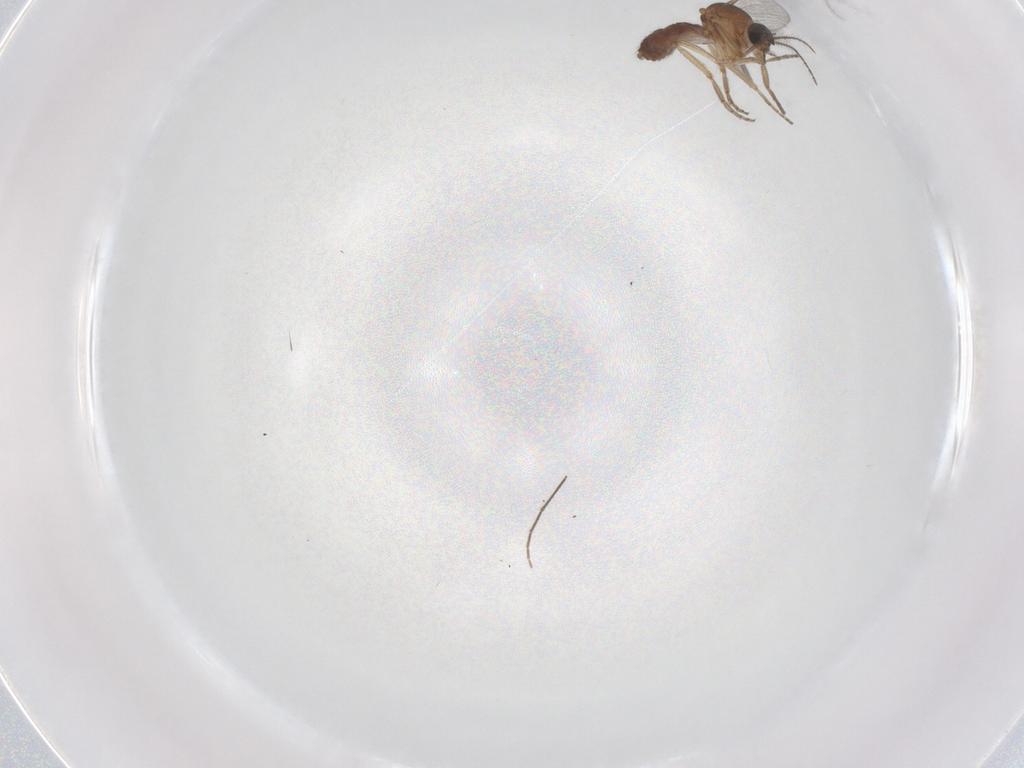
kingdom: Animalia
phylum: Arthropoda
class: Insecta
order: Diptera
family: Chironomidae
